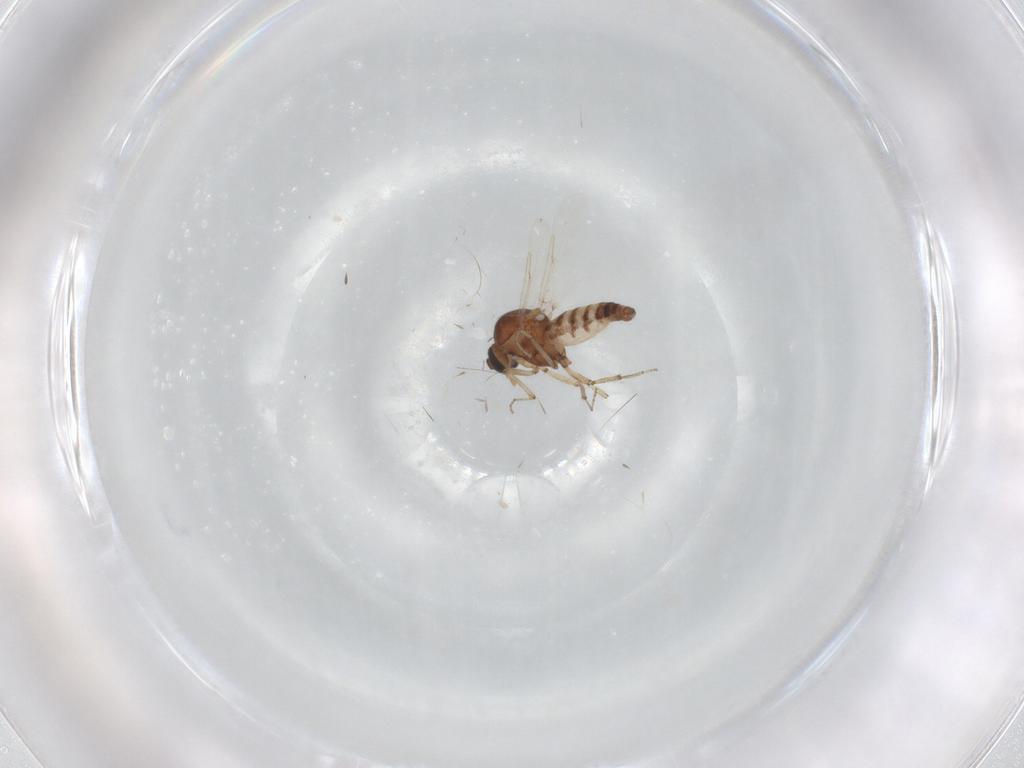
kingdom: Animalia
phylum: Arthropoda
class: Insecta
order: Diptera
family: Ceratopogonidae
